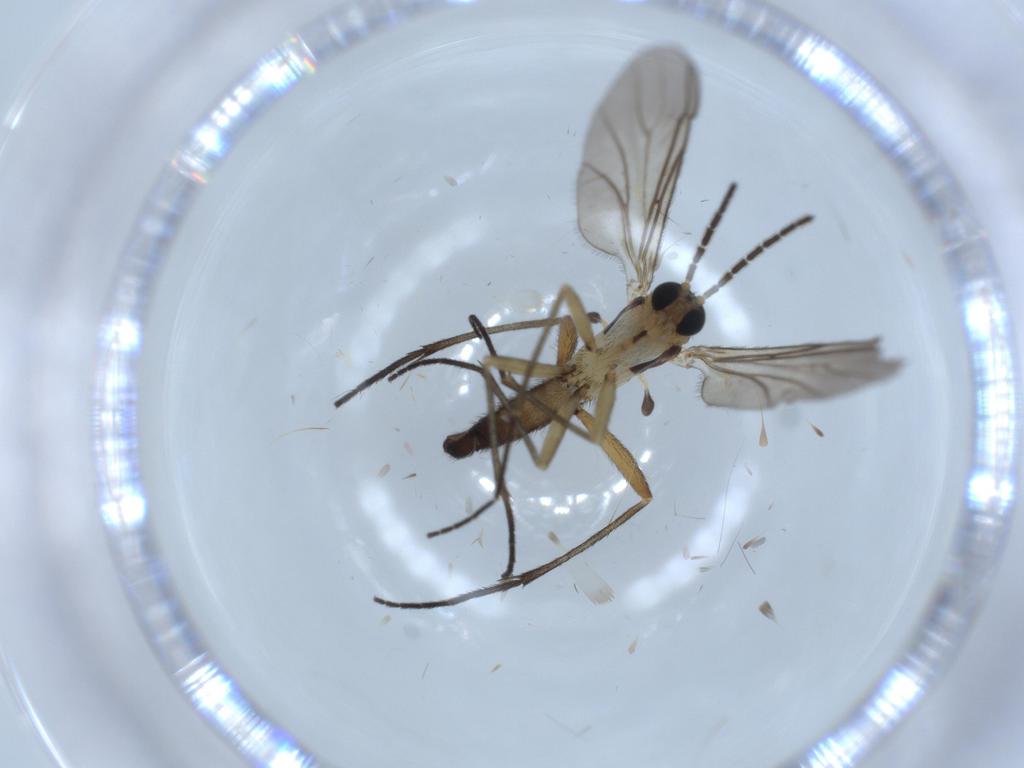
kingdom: Animalia
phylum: Arthropoda
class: Insecta
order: Diptera
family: Sciaridae
